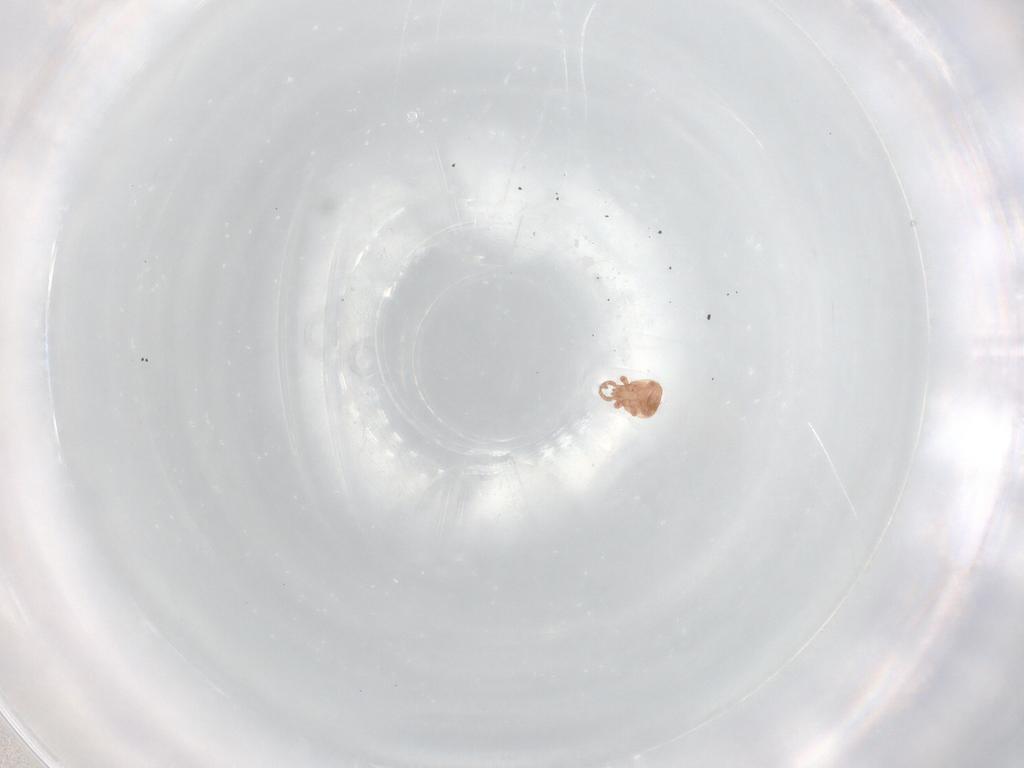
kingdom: Animalia
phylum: Arthropoda
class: Arachnida
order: Mesostigmata
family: Zerconidae
